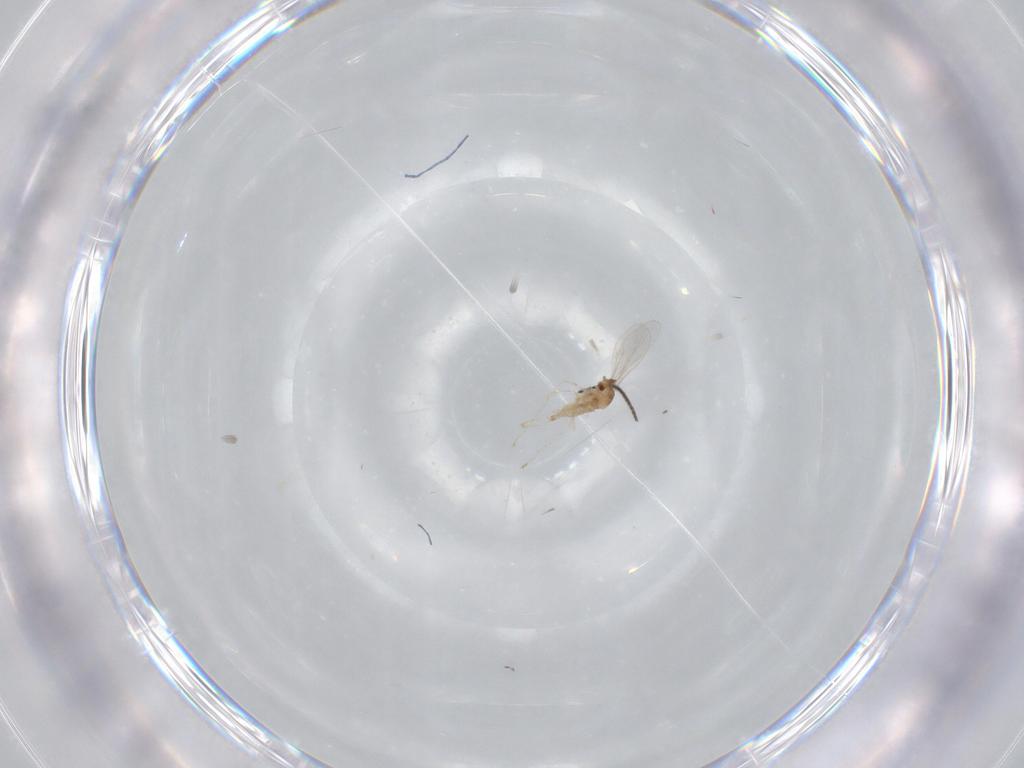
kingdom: Animalia
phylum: Arthropoda
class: Insecta
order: Diptera
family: Cecidomyiidae
